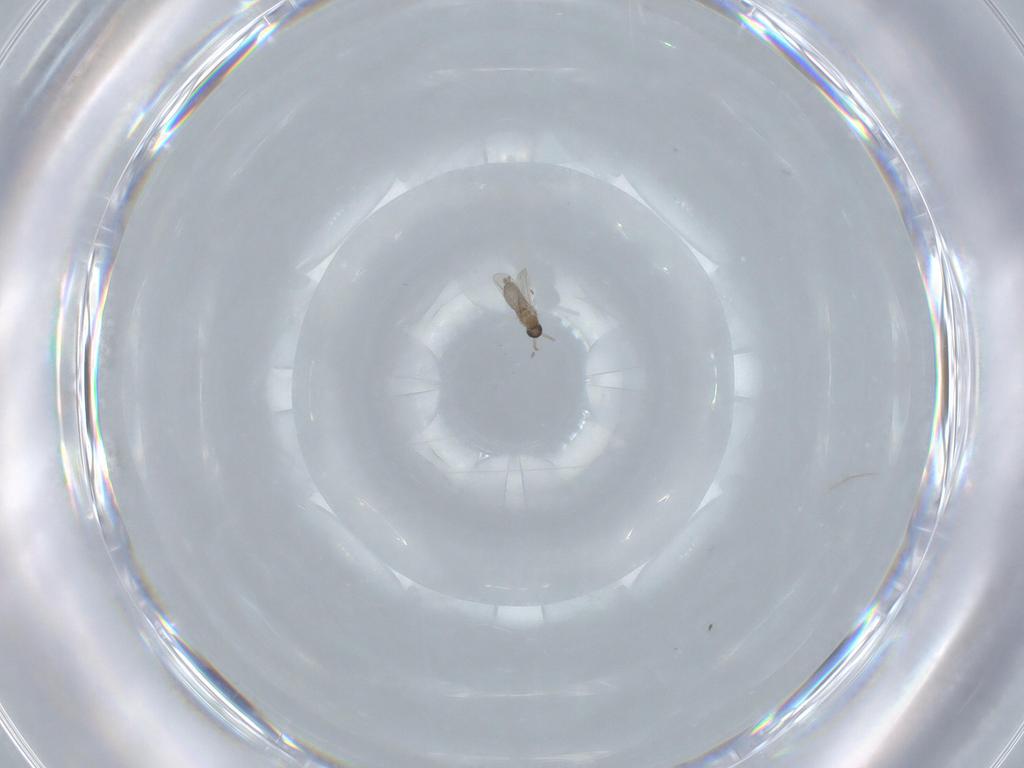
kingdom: Animalia
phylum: Arthropoda
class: Insecta
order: Diptera
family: Cecidomyiidae
